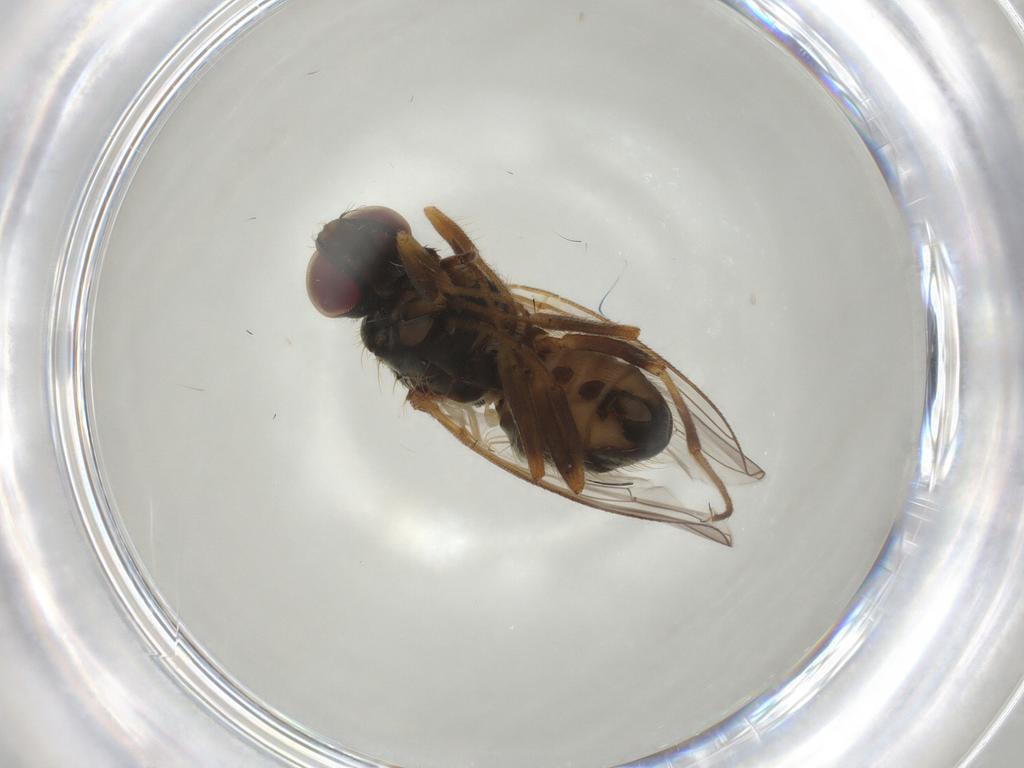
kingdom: Animalia
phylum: Arthropoda
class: Insecta
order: Diptera
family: Muscidae
